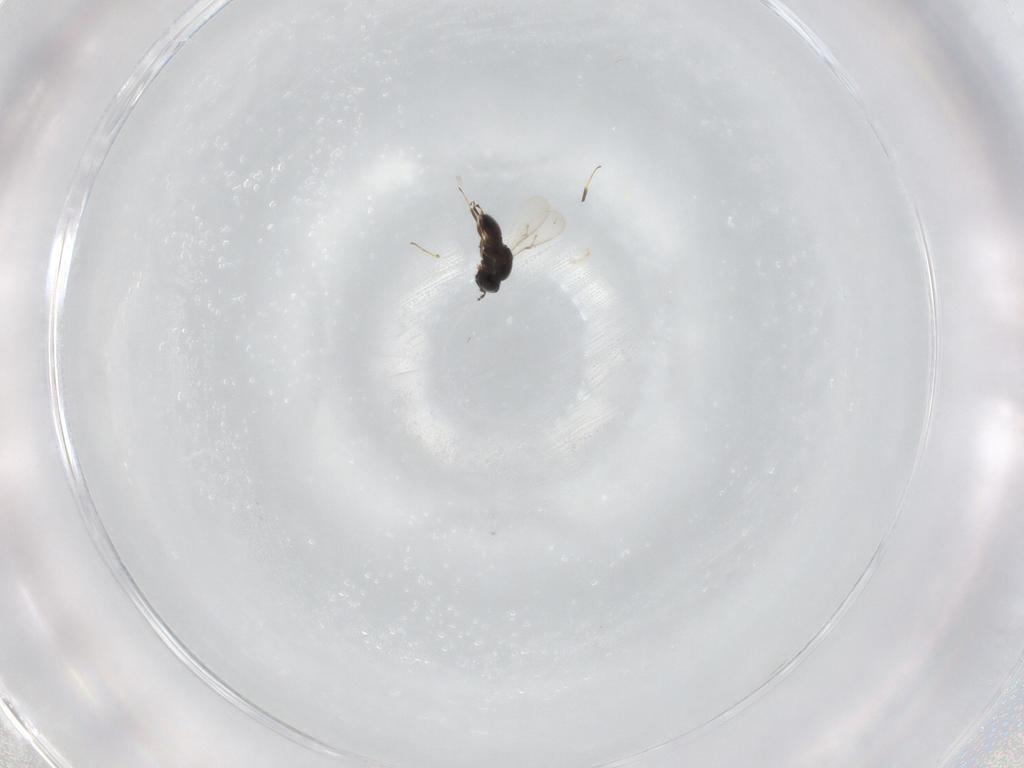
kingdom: Animalia
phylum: Arthropoda
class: Insecta
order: Hymenoptera
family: Scelionidae
